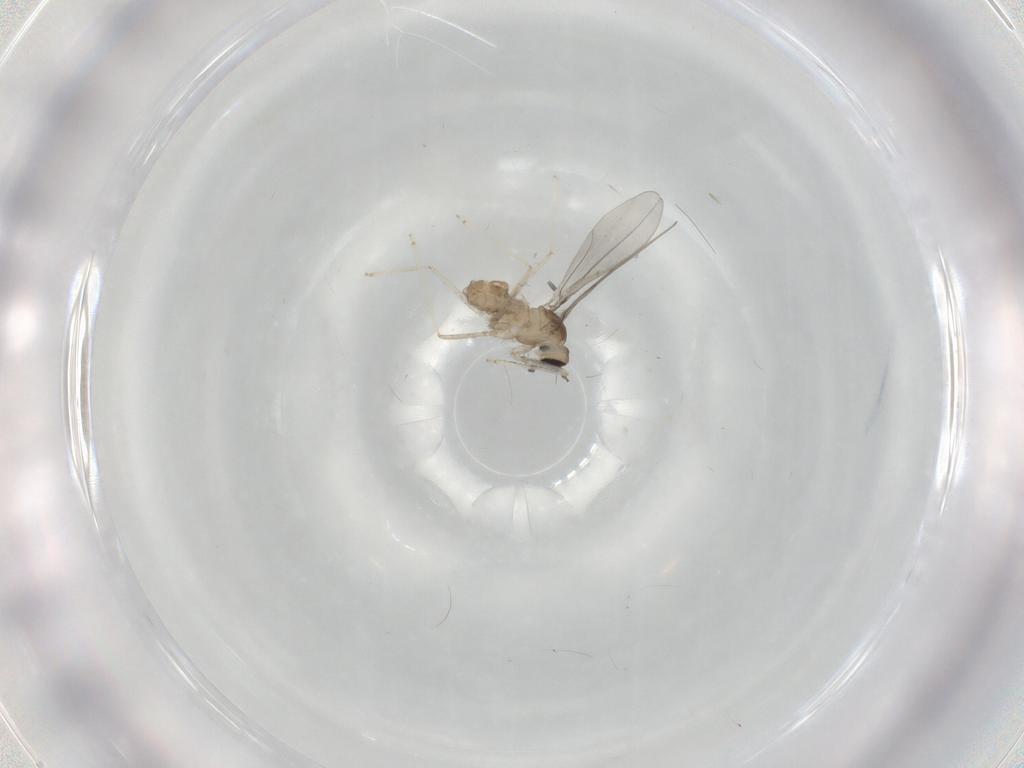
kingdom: Animalia
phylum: Arthropoda
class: Insecta
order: Diptera
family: Cecidomyiidae
